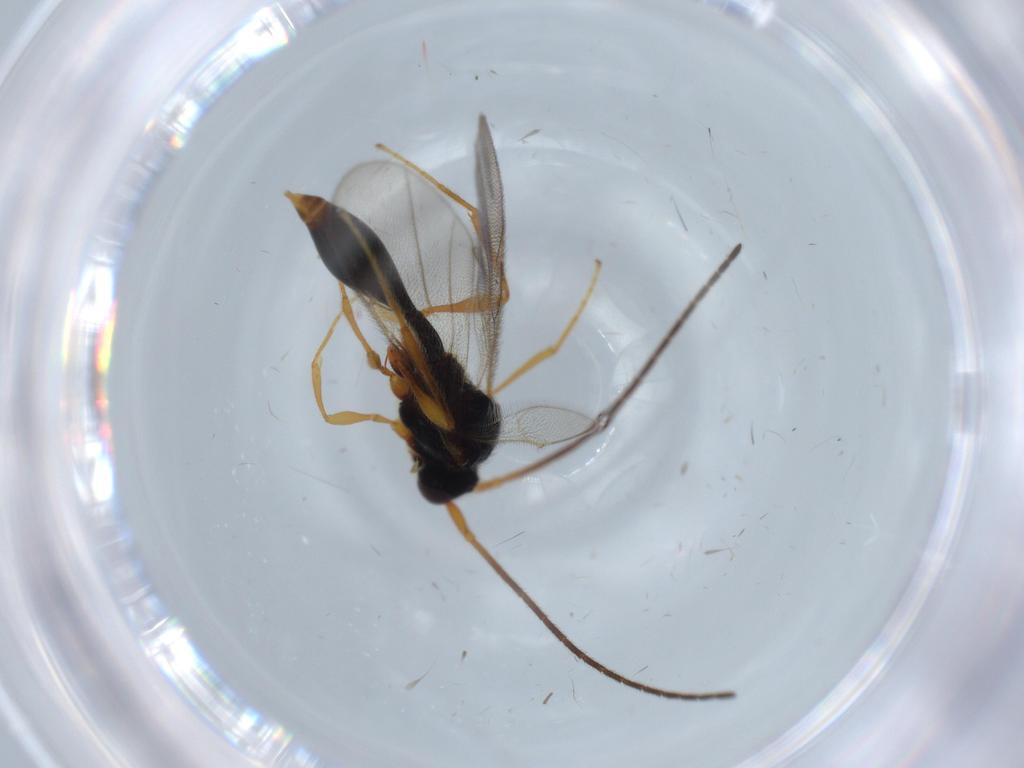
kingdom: Animalia
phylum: Arthropoda
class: Insecta
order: Hymenoptera
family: Diapriidae
